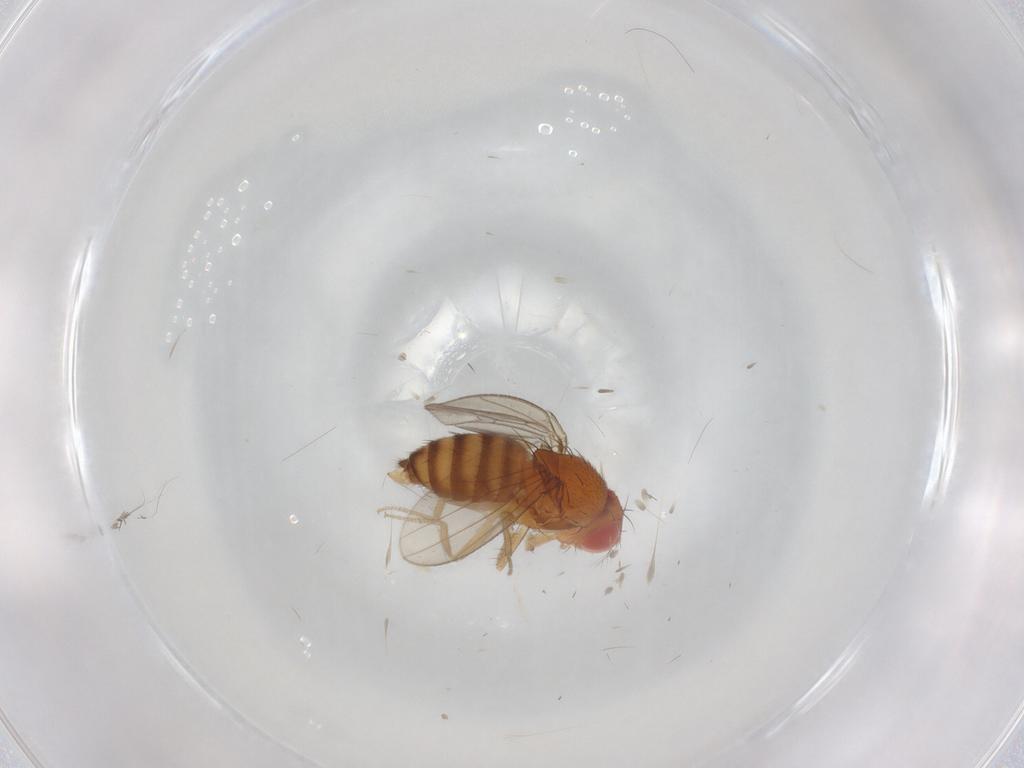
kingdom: Animalia
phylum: Arthropoda
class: Insecta
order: Diptera
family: Drosophilidae
